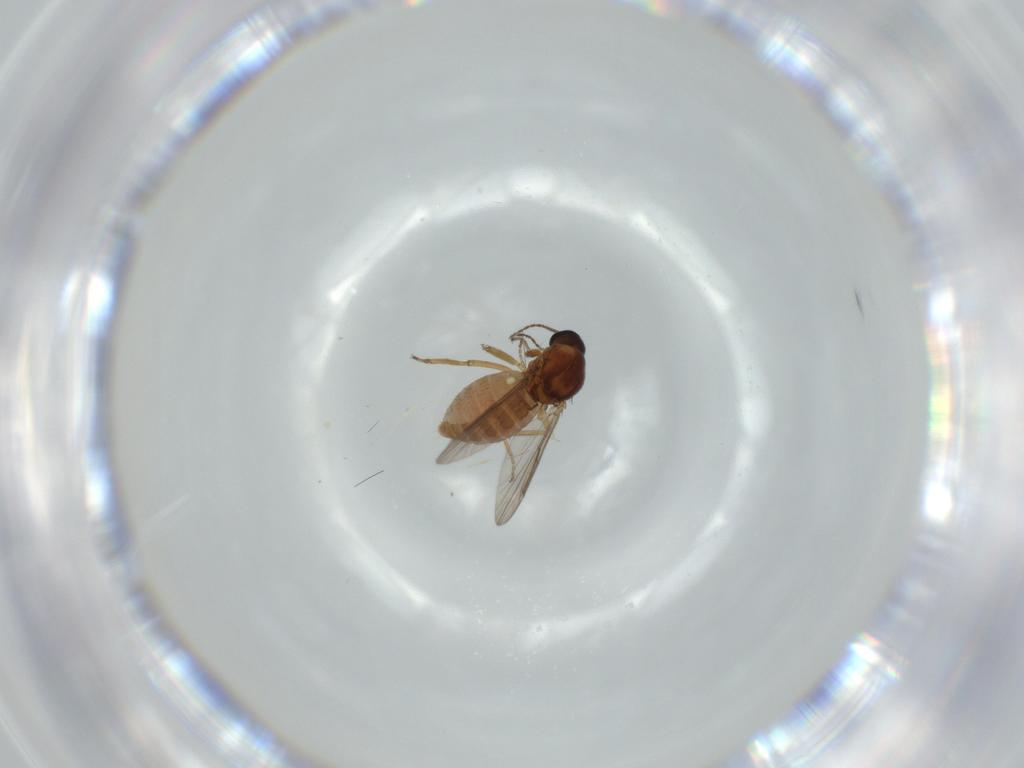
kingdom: Animalia
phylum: Arthropoda
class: Insecta
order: Diptera
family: Ceratopogonidae
